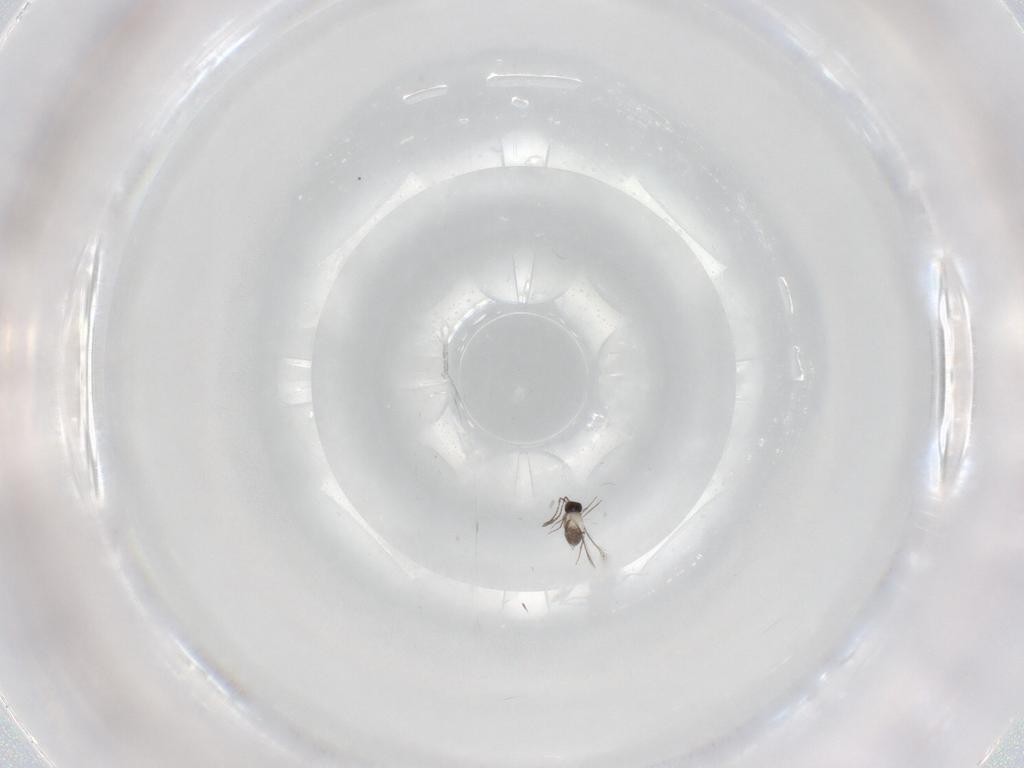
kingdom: Animalia
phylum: Arthropoda
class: Insecta
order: Hymenoptera
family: Mymaridae
